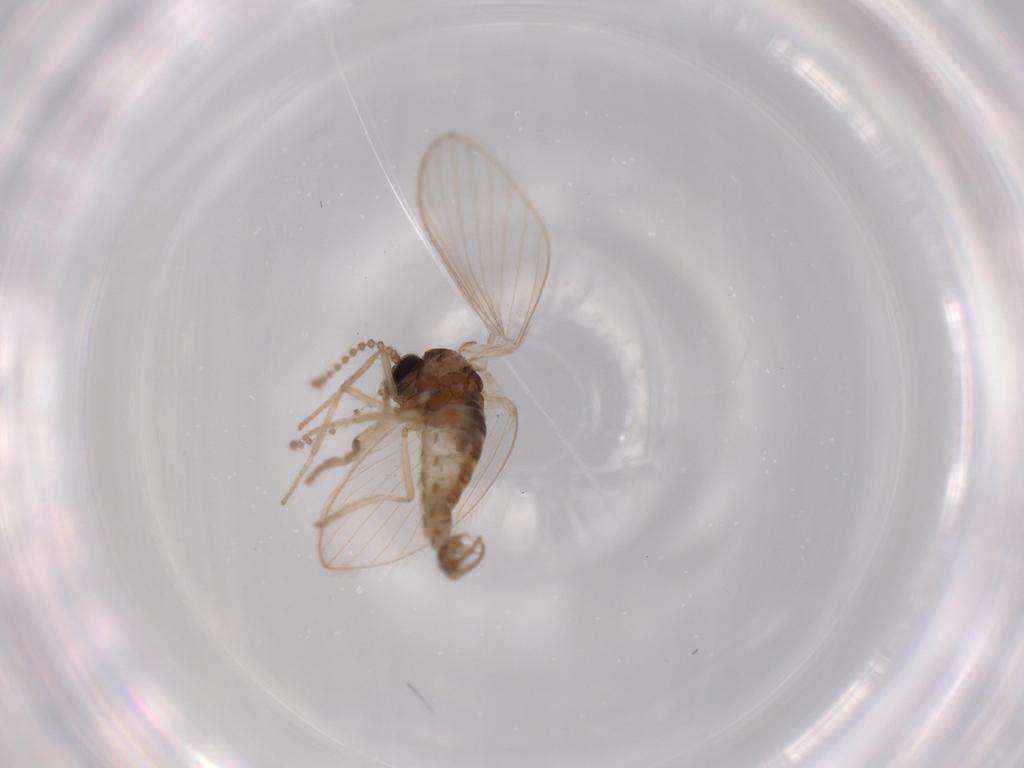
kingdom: Animalia
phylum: Arthropoda
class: Insecta
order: Diptera
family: Psychodidae
